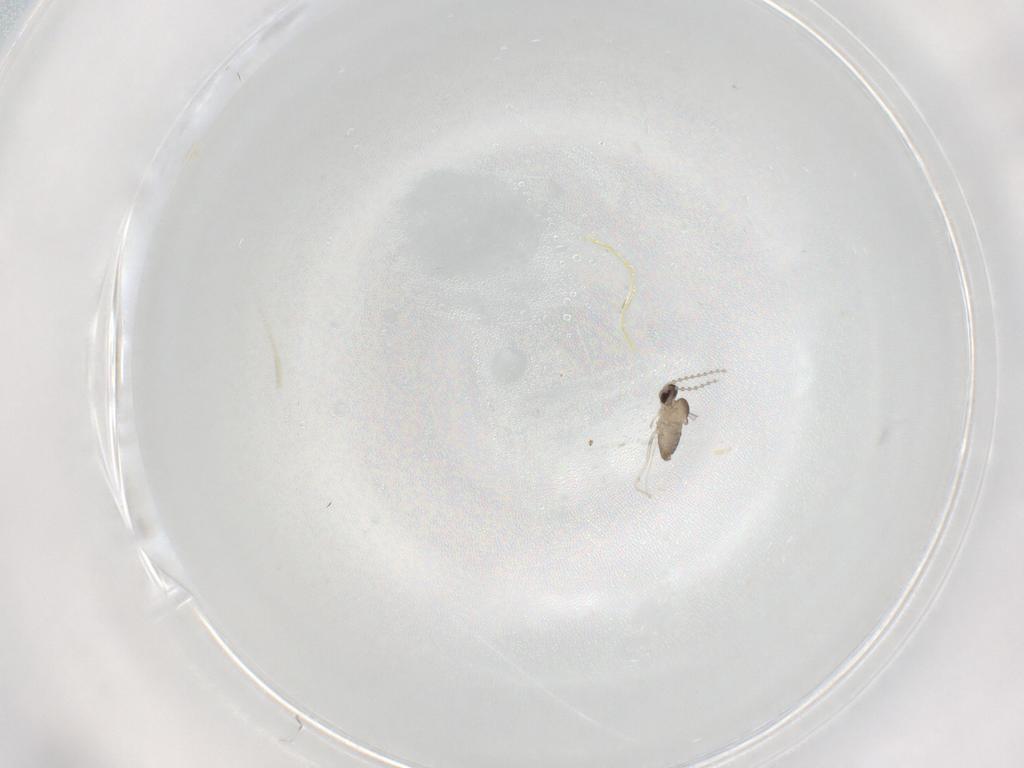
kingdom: Animalia
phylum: Arthropoda
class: Insecta
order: Diptera
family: Cecidomyiidae
